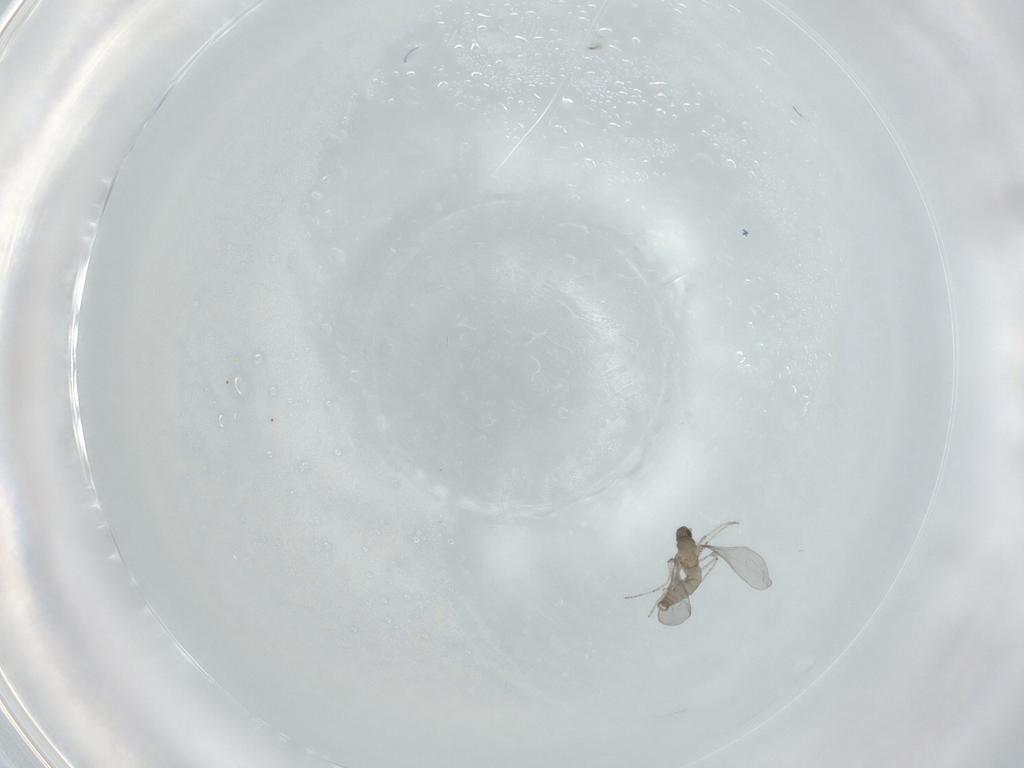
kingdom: Animalia
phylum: Arthropoda
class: Insecta
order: Diptera
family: Cecidomyiidae
